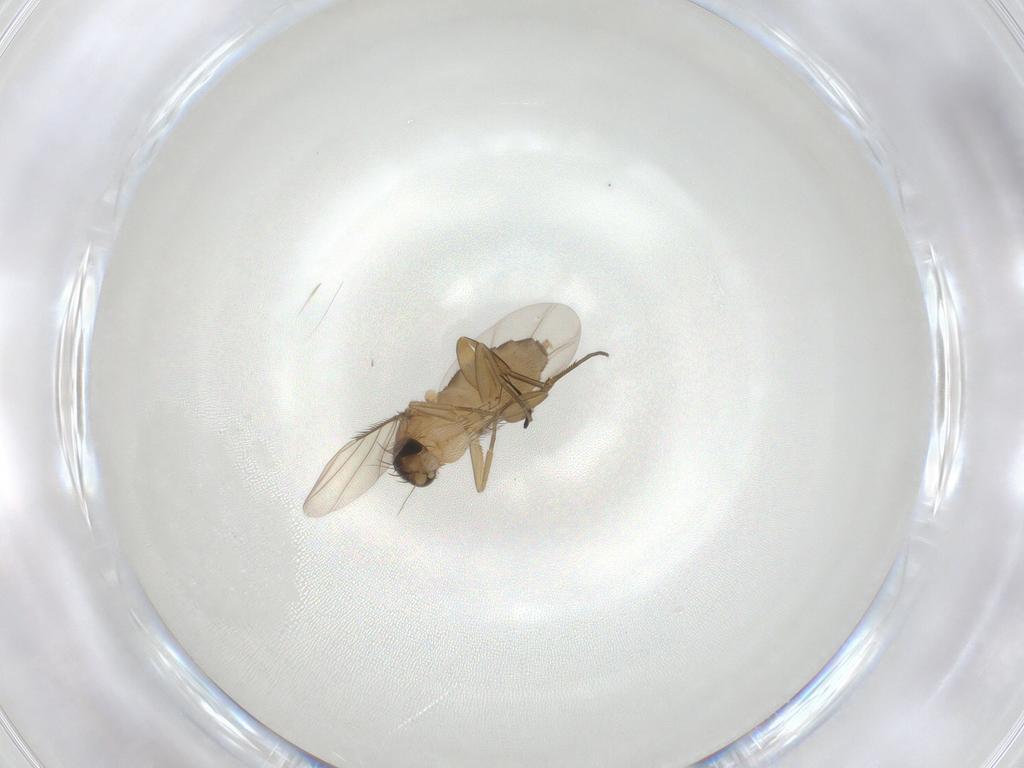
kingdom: Animalia
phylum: Arthropoda
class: Insecta
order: Diptera
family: Phoridae
